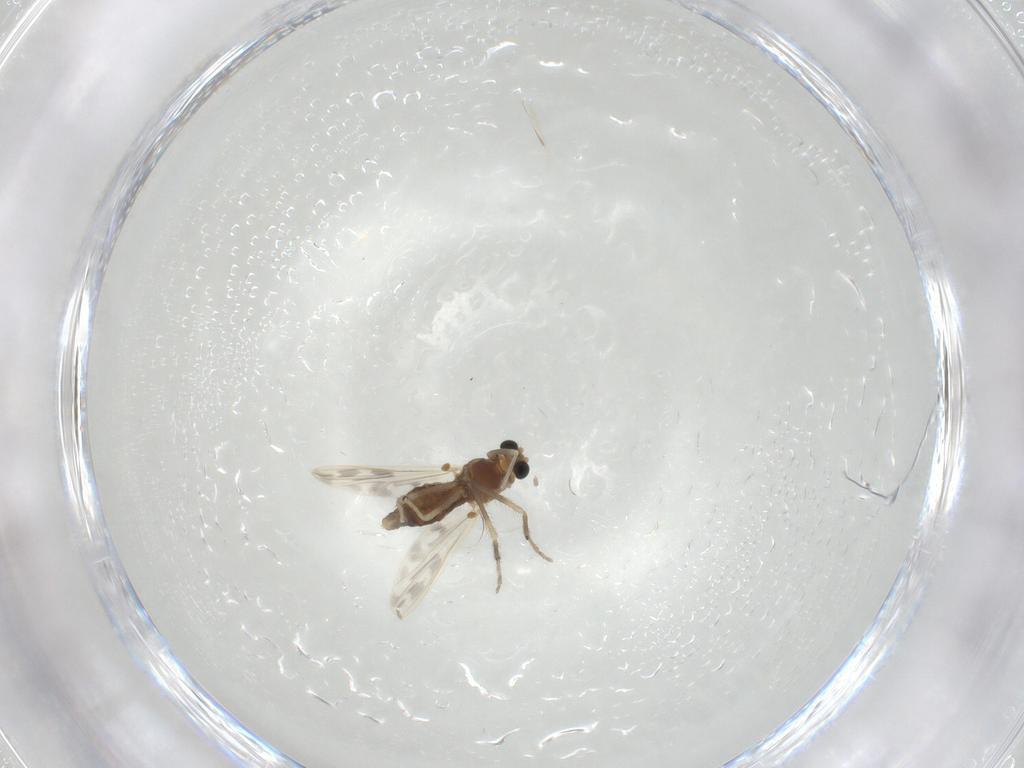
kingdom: Animalia
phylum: Arthropoda
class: Insecta
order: Diptera
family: Chironomidae
